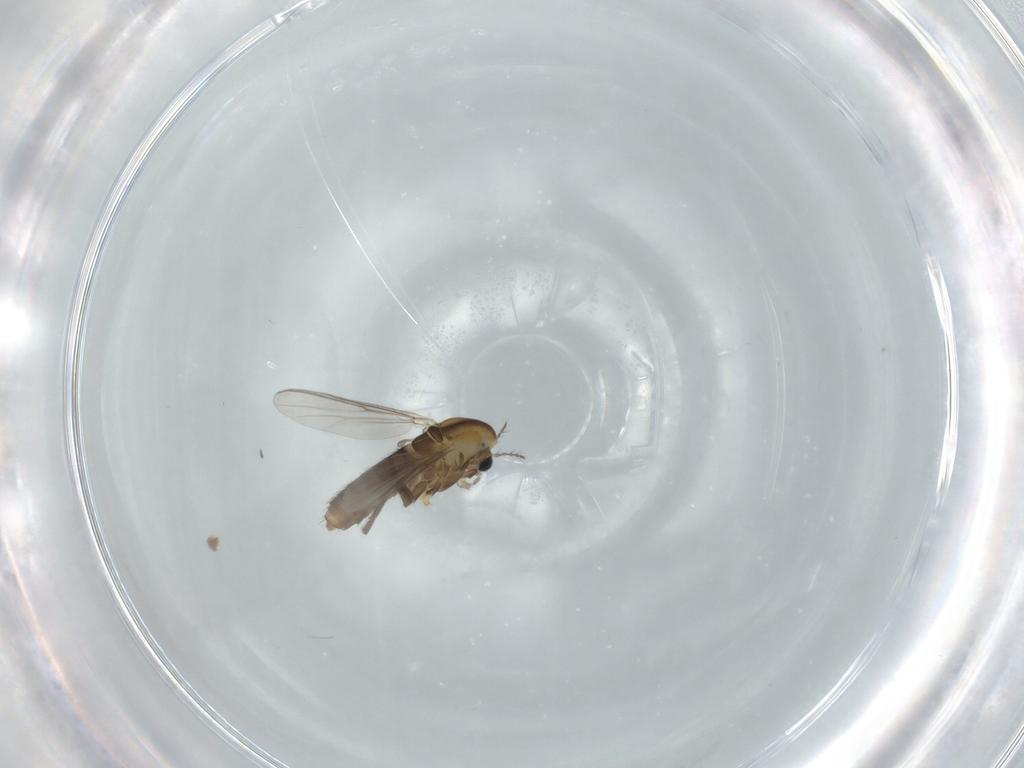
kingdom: Animalia
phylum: Arthropoda
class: Insecta
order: Diptera
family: Chironomidae
